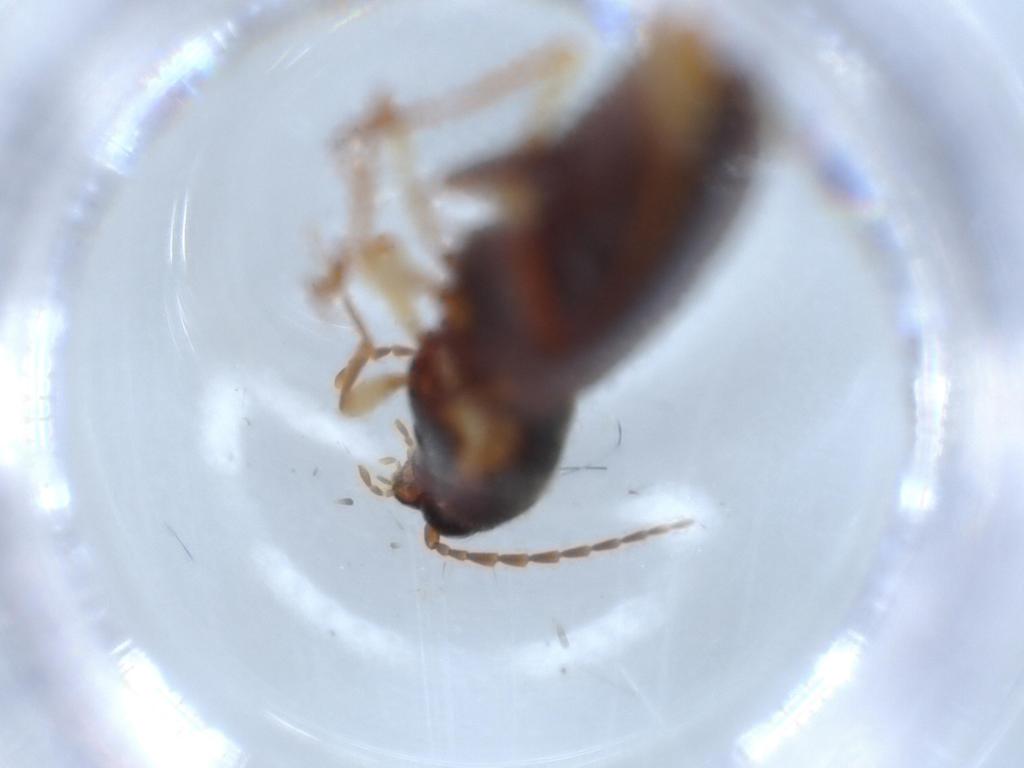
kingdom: Animalia
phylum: Arthropoda
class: Insecta
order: Coleoptera
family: Elateridae
